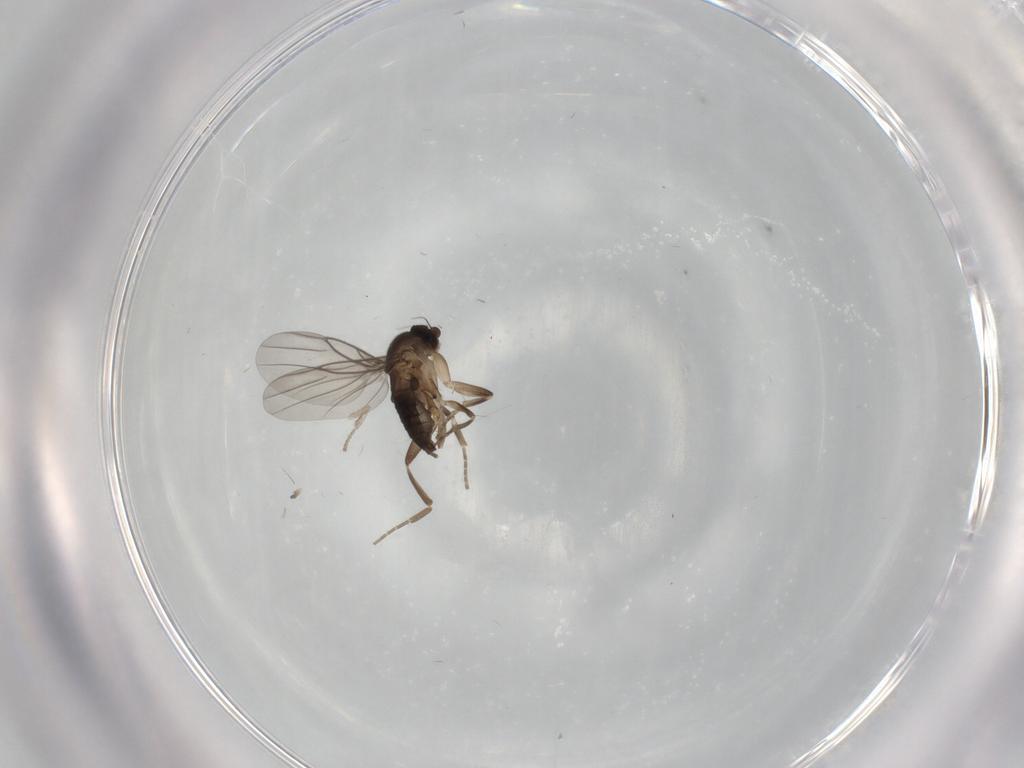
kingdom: Animalia
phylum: Arthropoda
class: Insecta
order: Diptera
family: Psychodidae
